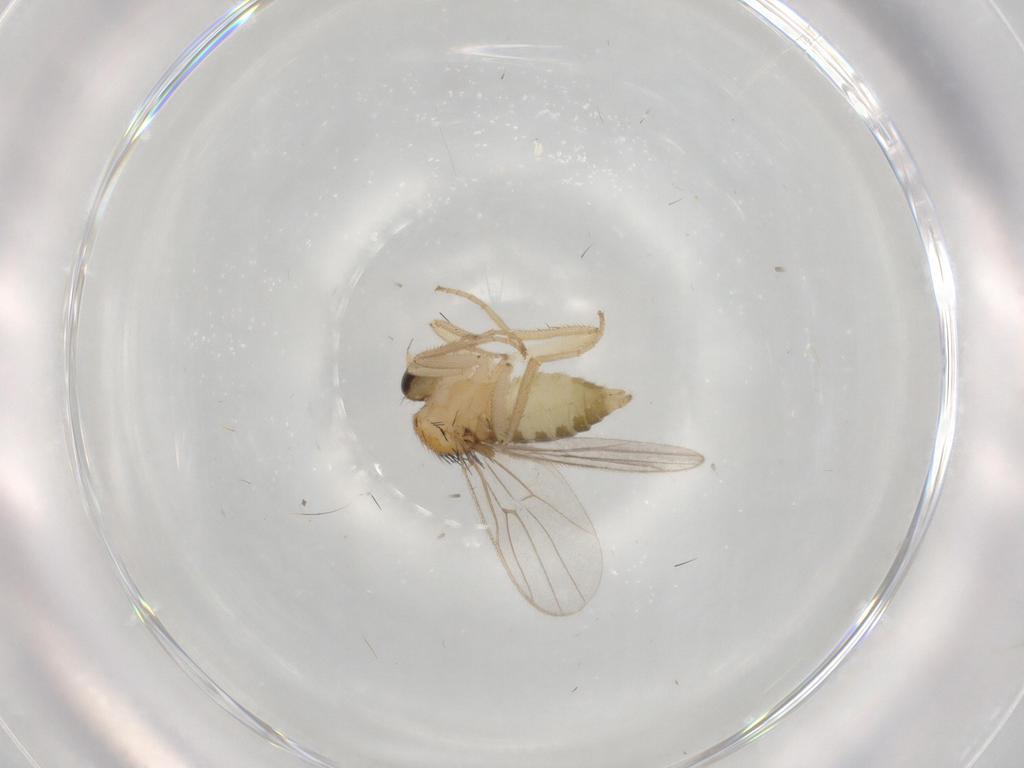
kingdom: Animalia
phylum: Arthropoda
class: Insecta
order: Diptera
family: Hybotidae
